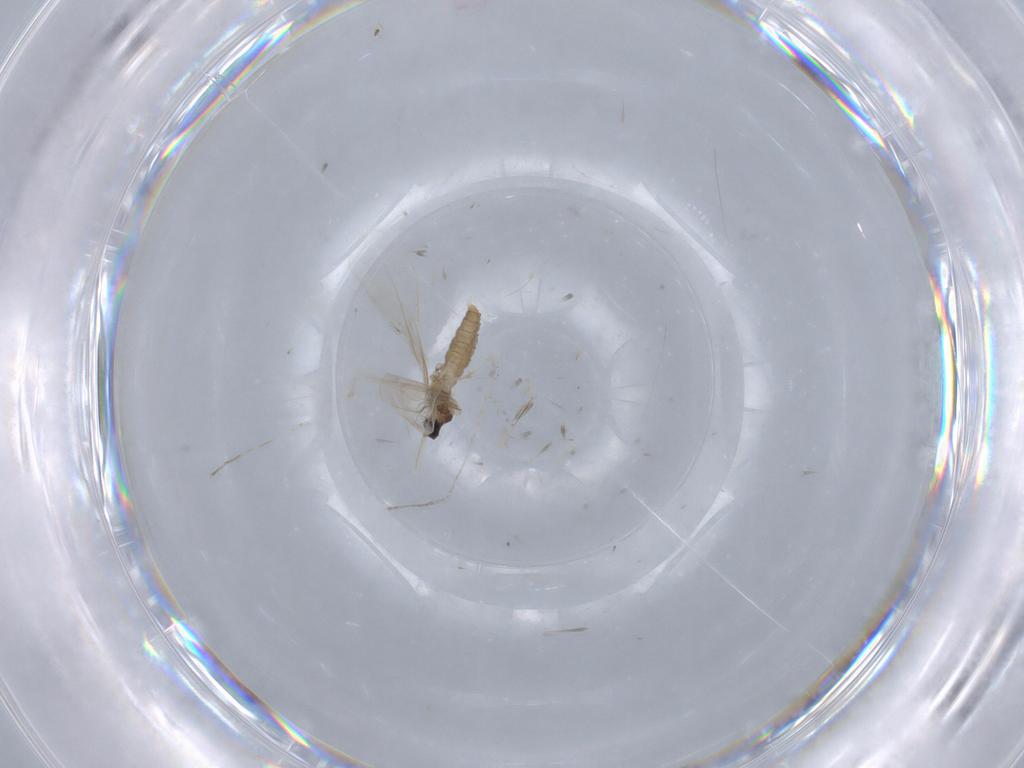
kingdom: Animalia
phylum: Arthropoda
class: Insecta
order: Diptera
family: Cecidomyiidae
